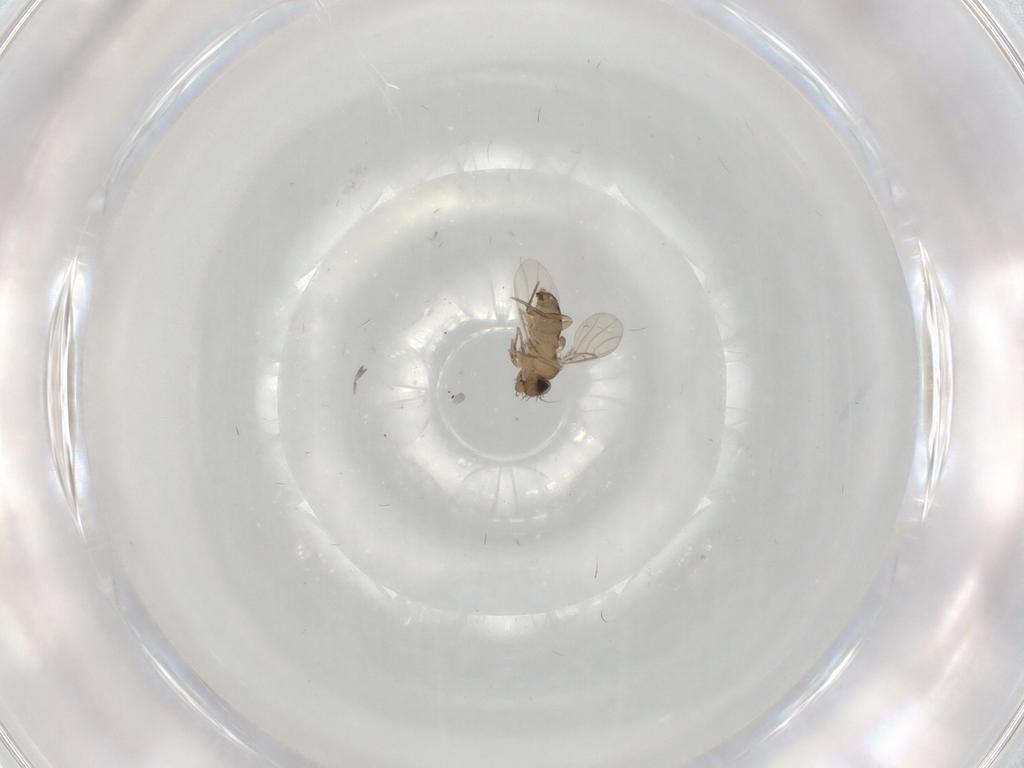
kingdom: Animalia
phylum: Arthropoda
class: Insecta
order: Diptera
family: Phoridae
